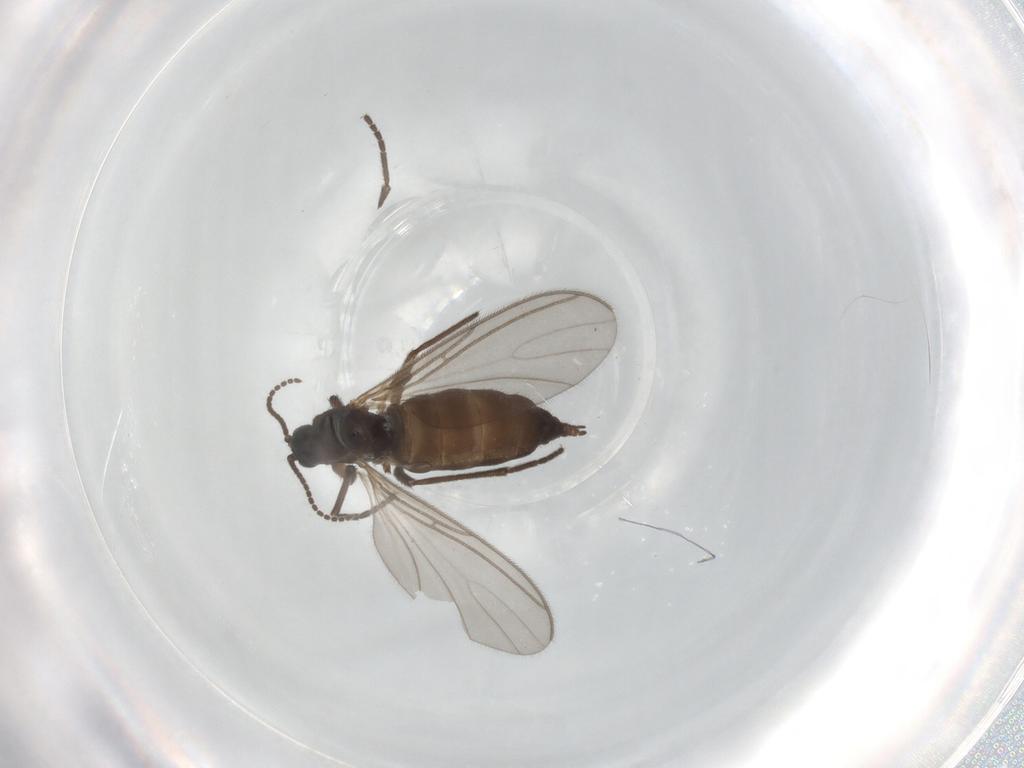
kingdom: Animalia
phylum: Arthropoda
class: Insecta
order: Diptera
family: Sciaridae
